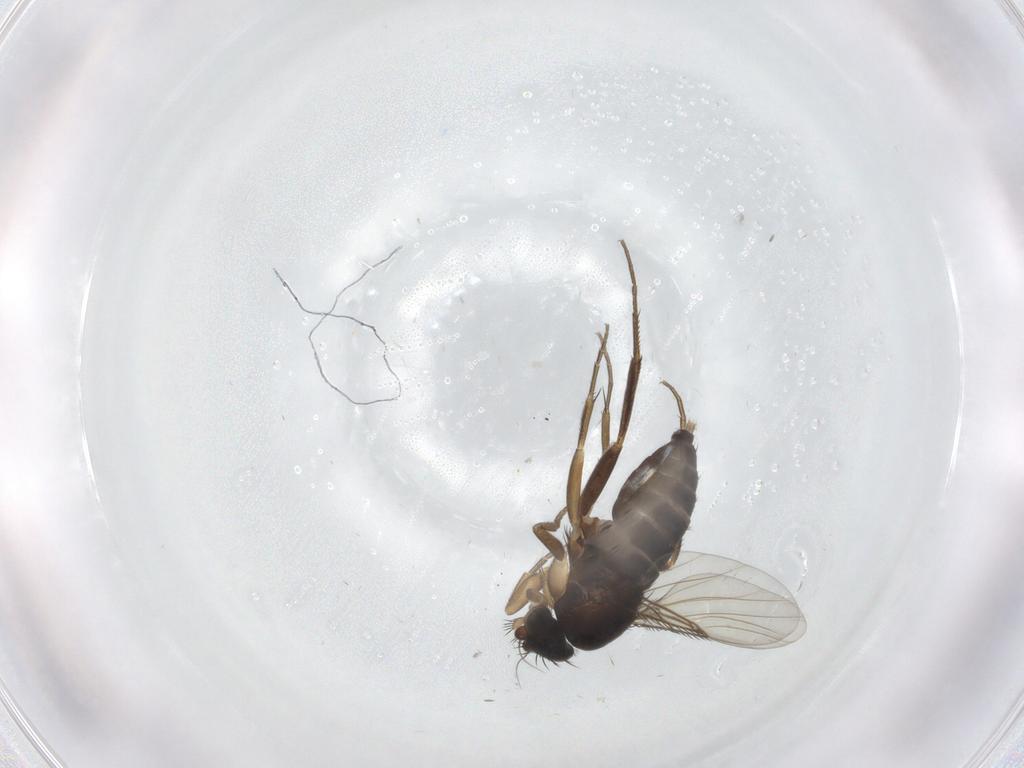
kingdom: Animalia
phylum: Arthropoda
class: Insecta
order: Diptera
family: Phoridae
